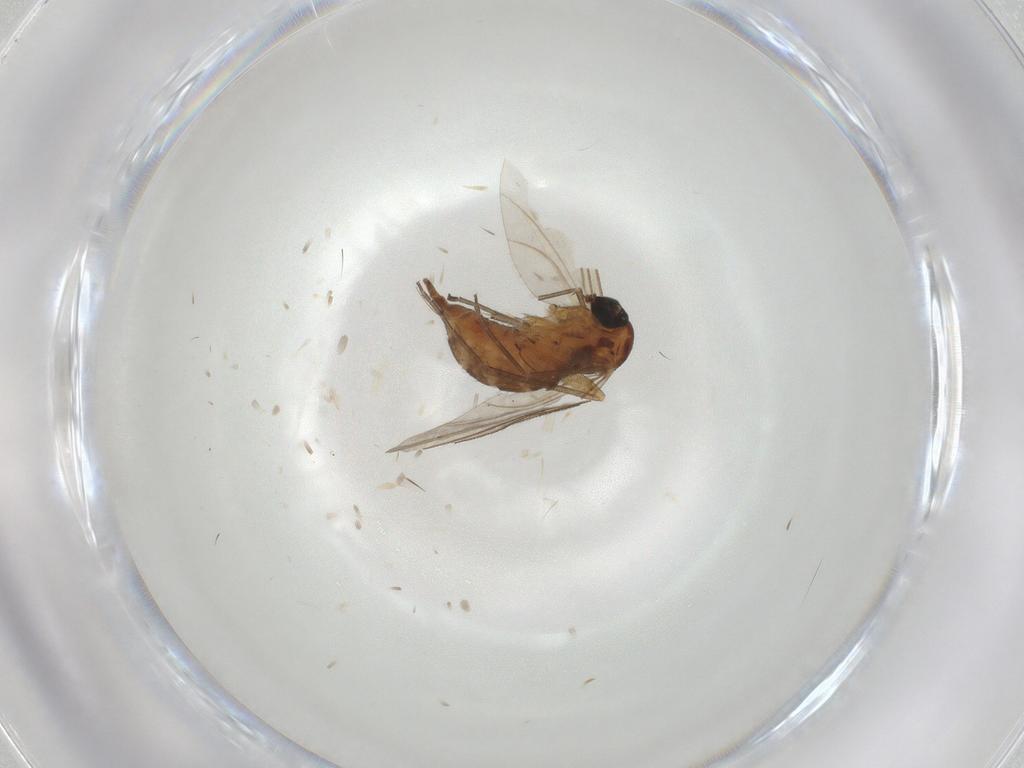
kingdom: Animalia
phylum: Arthropoda
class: Insecta
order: Diptera
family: Sciaridae
